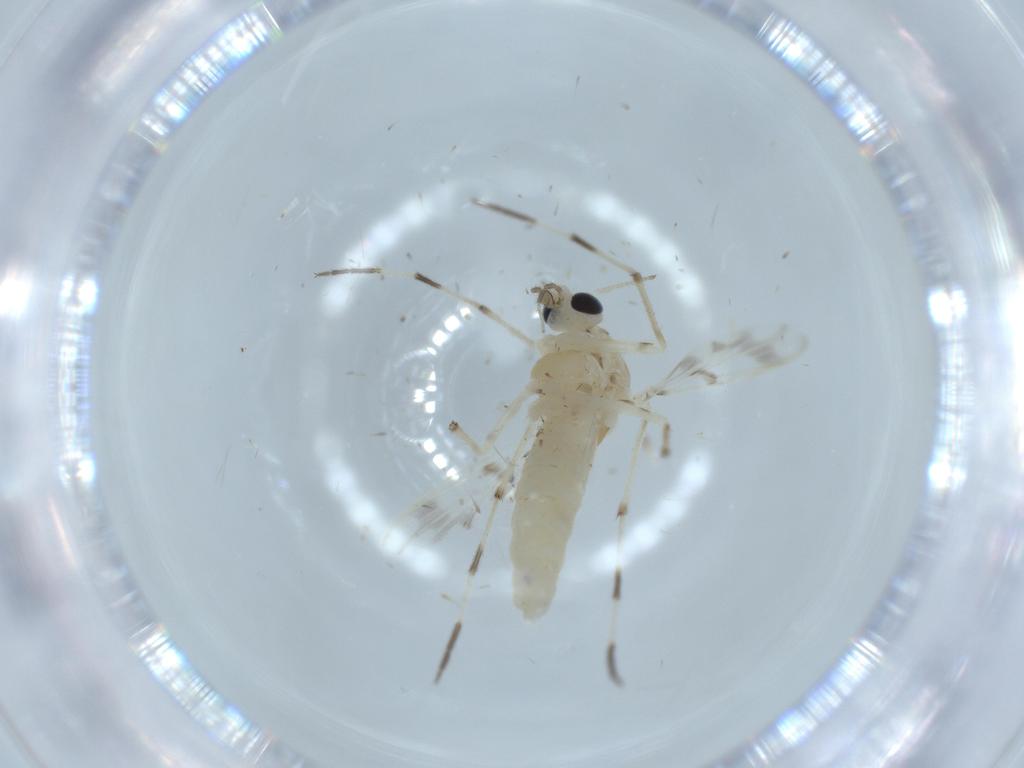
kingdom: Animalia
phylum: Arthropoda
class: Insecta
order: Diptera
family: Chironomidae
